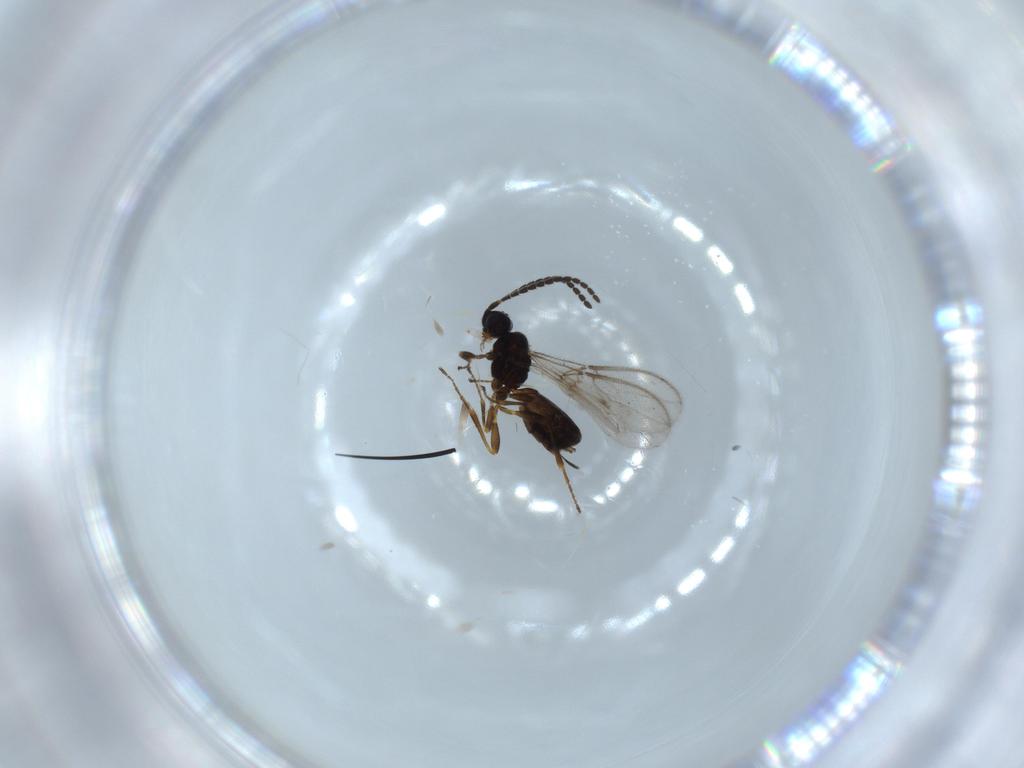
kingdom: Animalia
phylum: Arthropoda
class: Insecta
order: Hymenoptera
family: Braconidae
